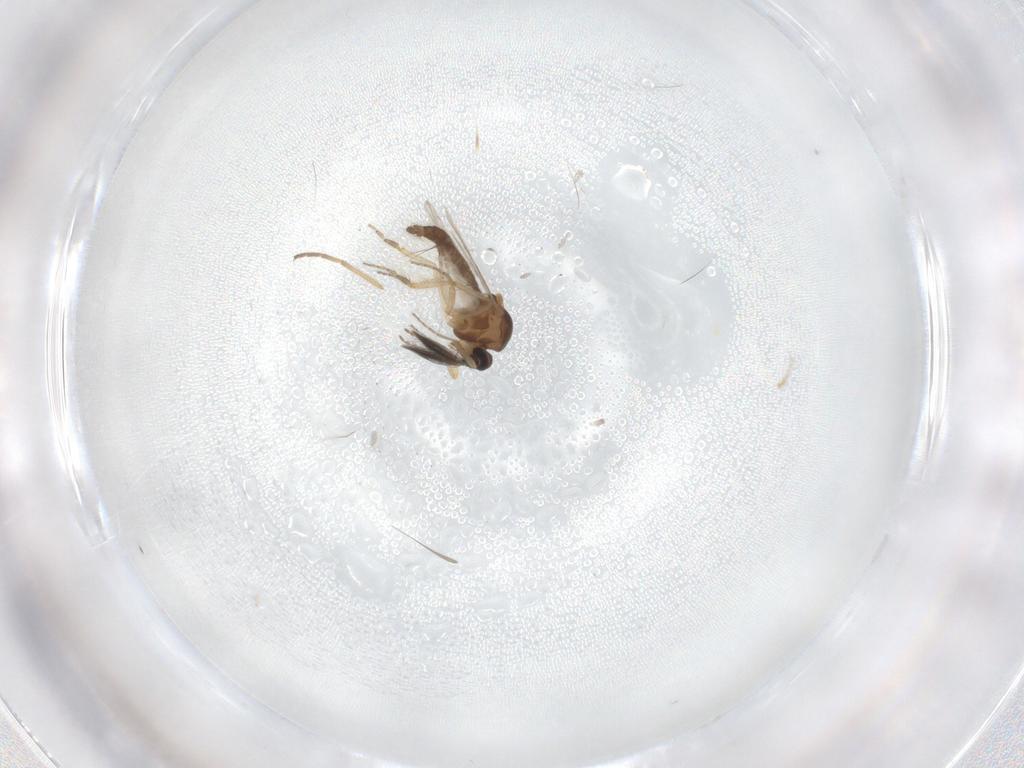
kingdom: Animalia
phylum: Arthropoda
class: Insecta
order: Diptera
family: Ceratopogonidae
